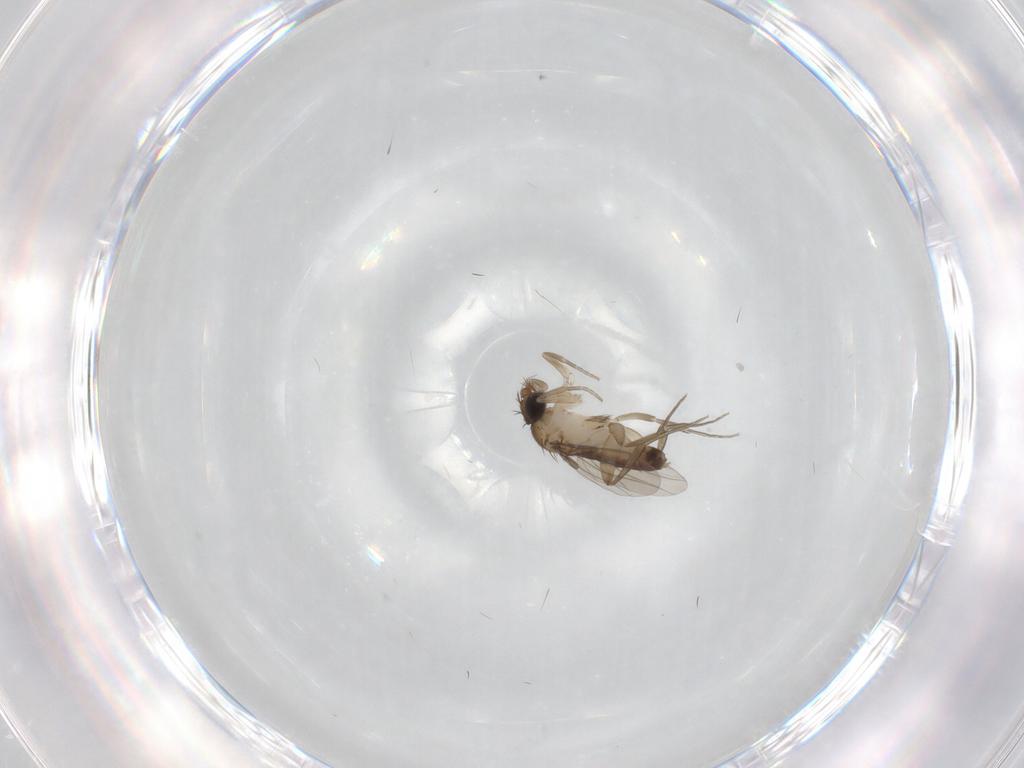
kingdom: Animalia
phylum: Arthropoda
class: Insecta
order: Diptera
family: Phoridae
